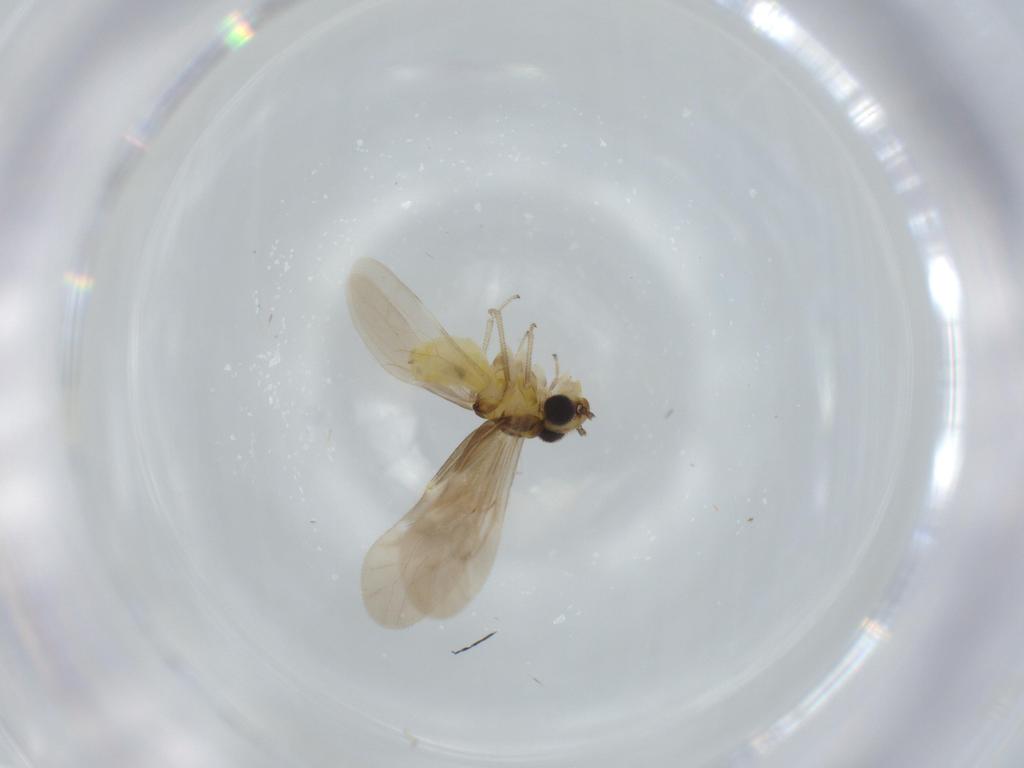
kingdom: Animalia
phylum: Arthropoda
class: Insecta
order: Psocodea
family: Caeciliusidae
